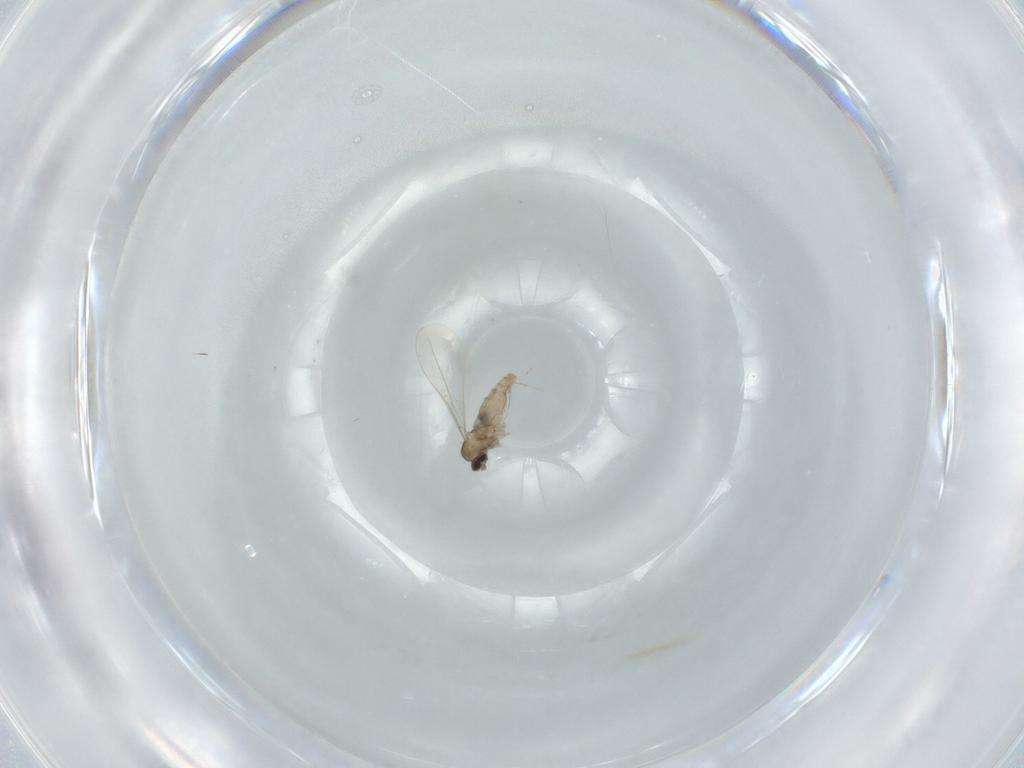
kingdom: Animalia
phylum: Arthropoda
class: Insecta
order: Diptera
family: Cecidomyiidae
